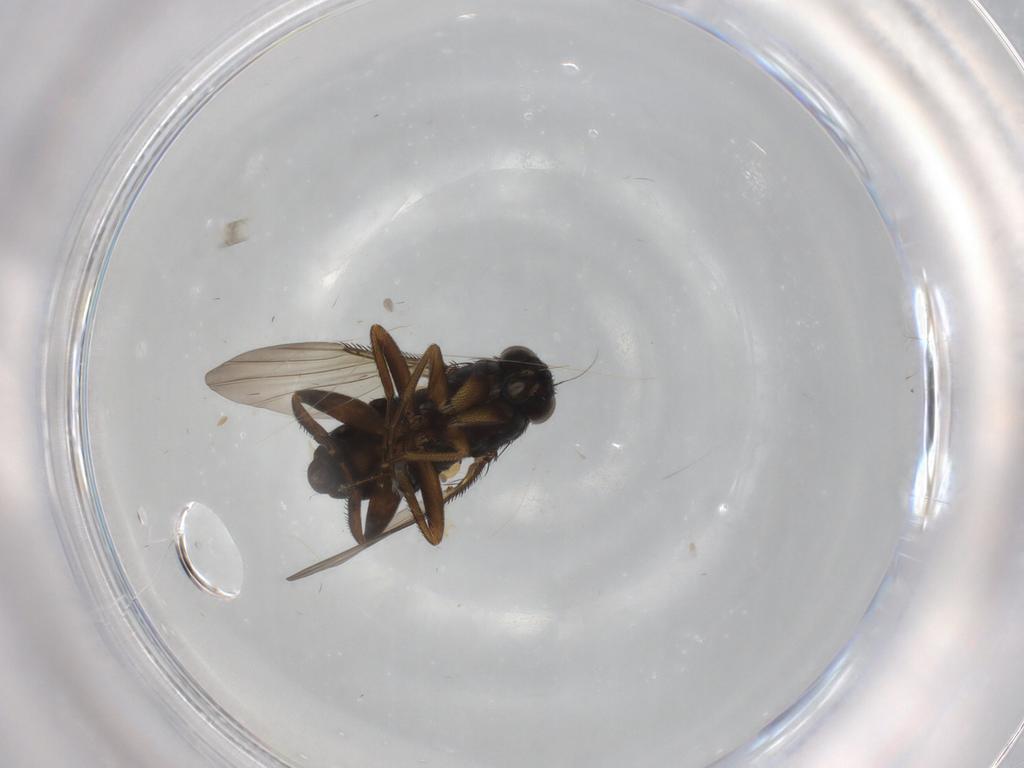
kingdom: Animalia
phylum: Arthropoda
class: Insecta
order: Diptera
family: Phoridae
